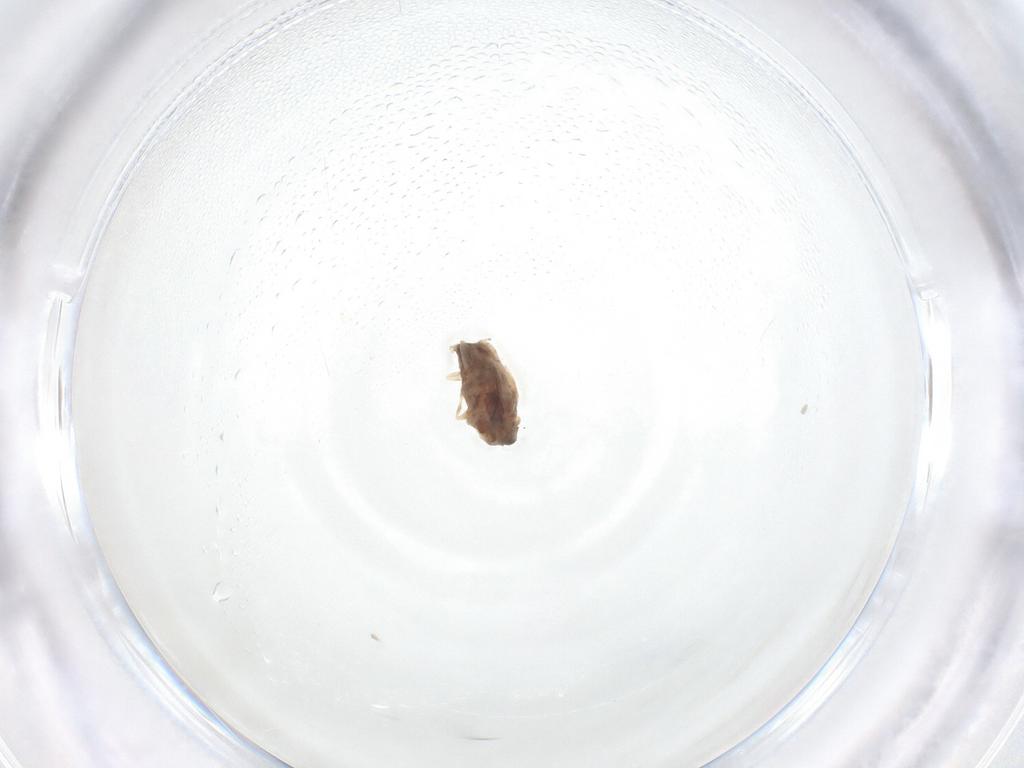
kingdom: Animalia
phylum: Arthropoda
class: Insecta
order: Diptera
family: Chironomidae
